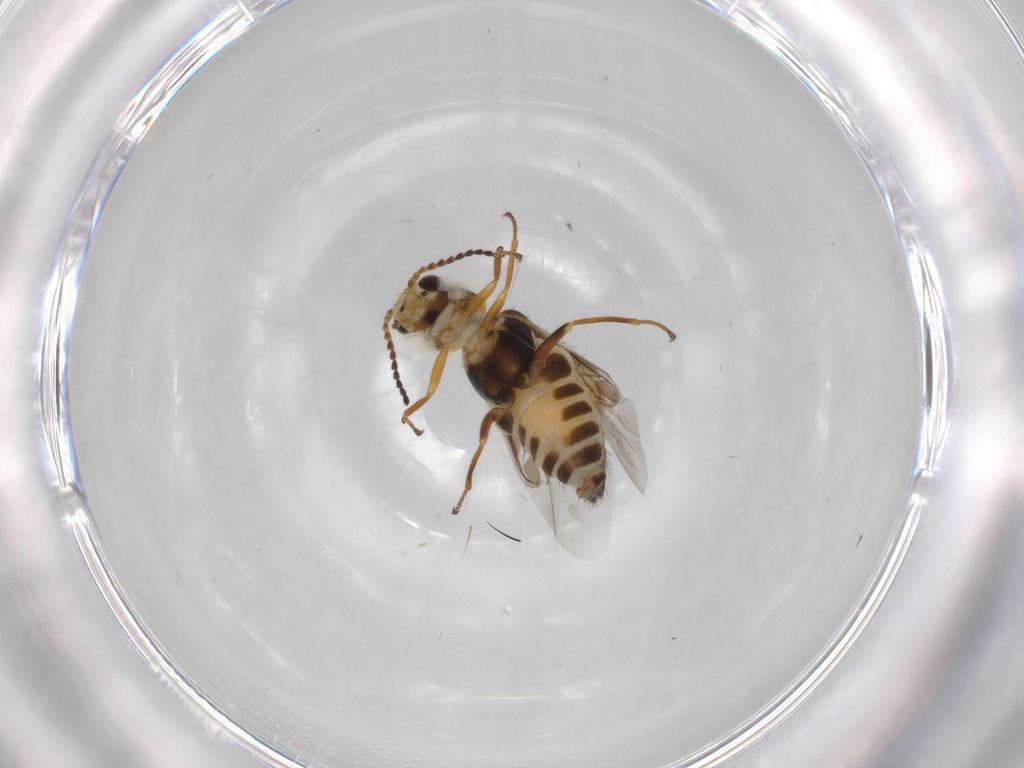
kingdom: Animalia
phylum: Arthropoda
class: Insecta
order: Coleoptera
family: Melyridae
